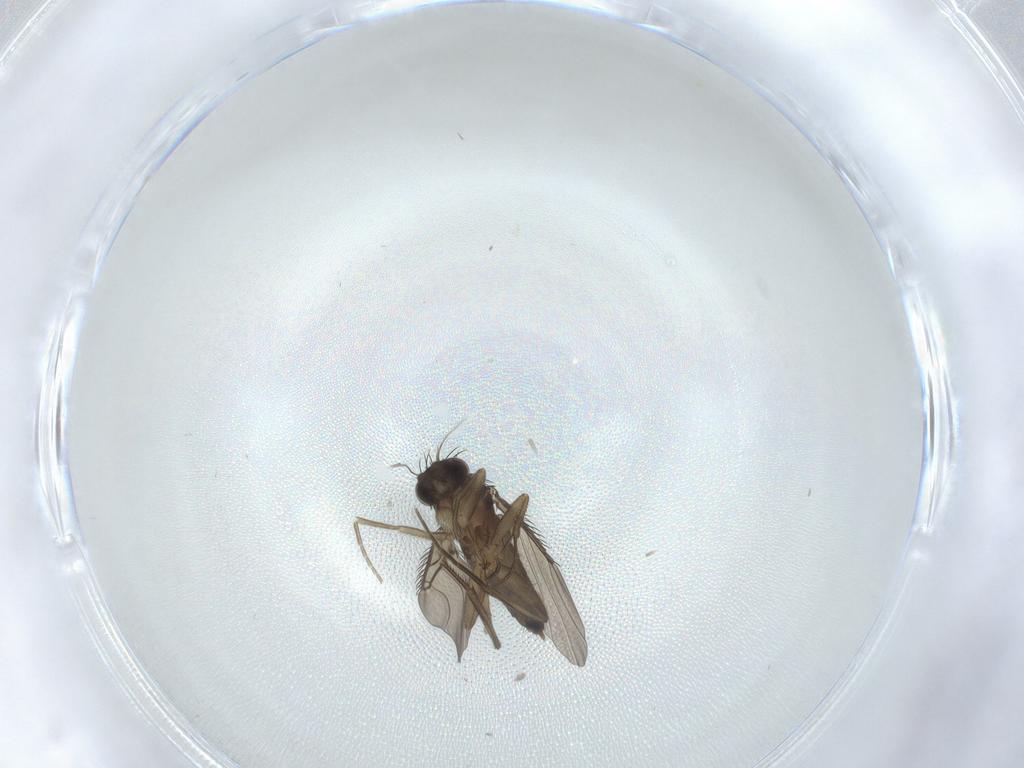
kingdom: Animalia
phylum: Arthropoda
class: Insecta
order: Diptera
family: Phoridae
